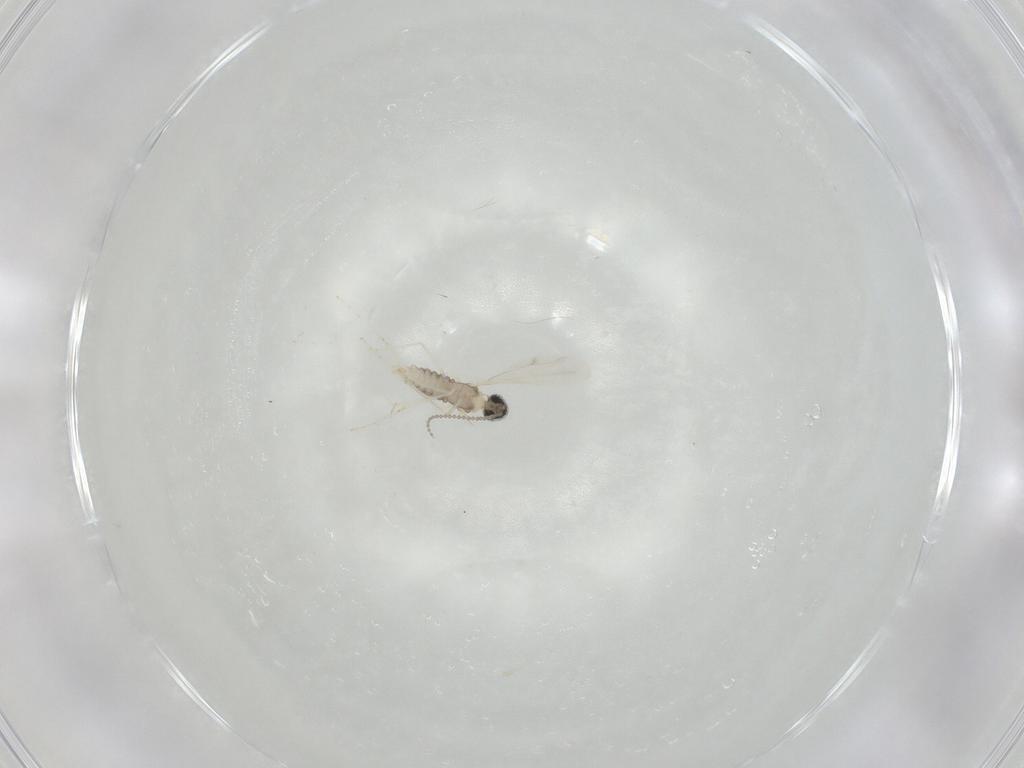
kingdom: Animalia
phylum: Arthropoda
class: Insecta
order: Diptera
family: Cecidomyiidae
